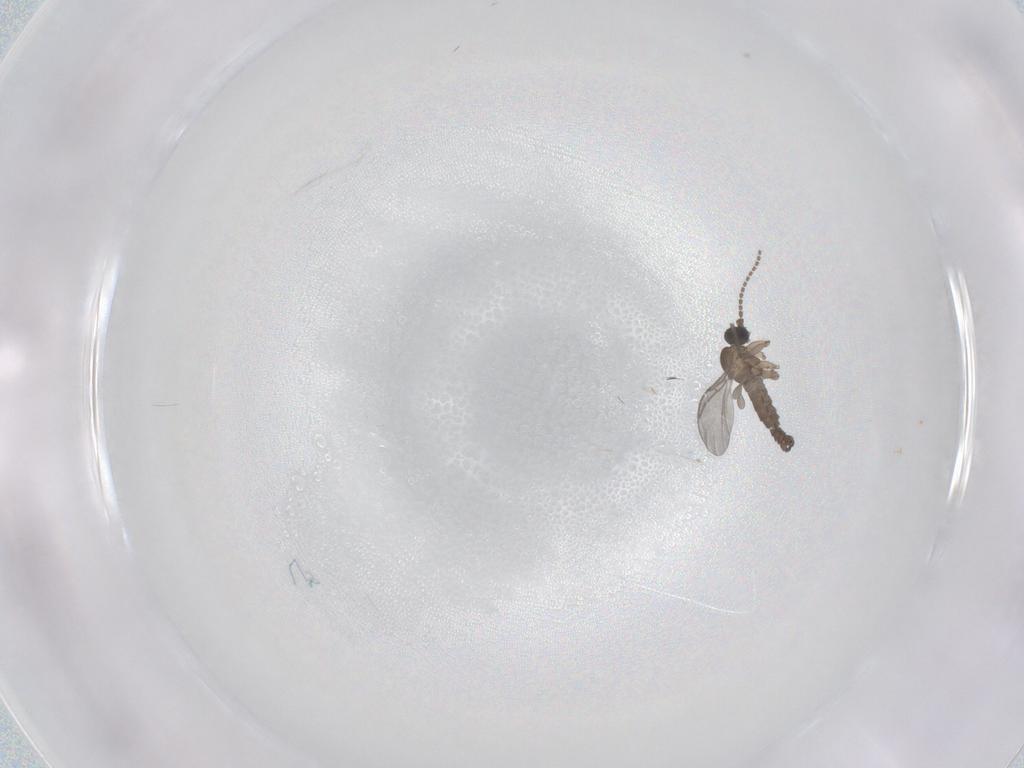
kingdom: Animalia
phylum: Arthropoda
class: Insecta
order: Diptera
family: Sciaridae
